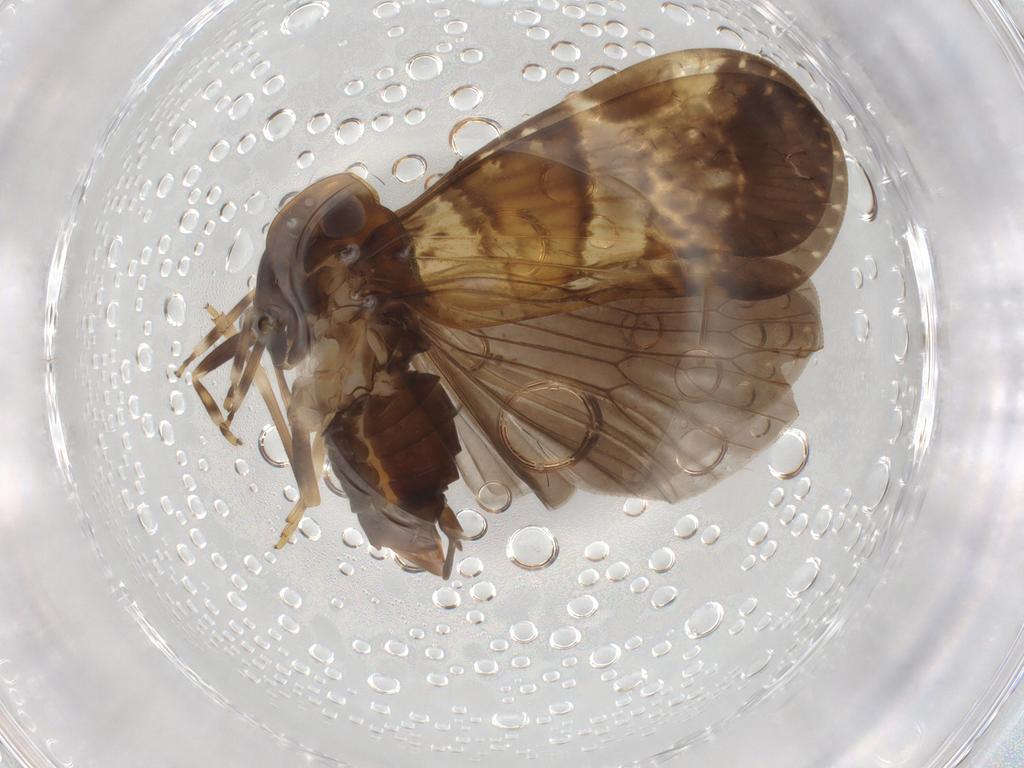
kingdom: Animalia
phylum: Arthropoda
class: Insecta
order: Hemiptera
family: Cixiidae
